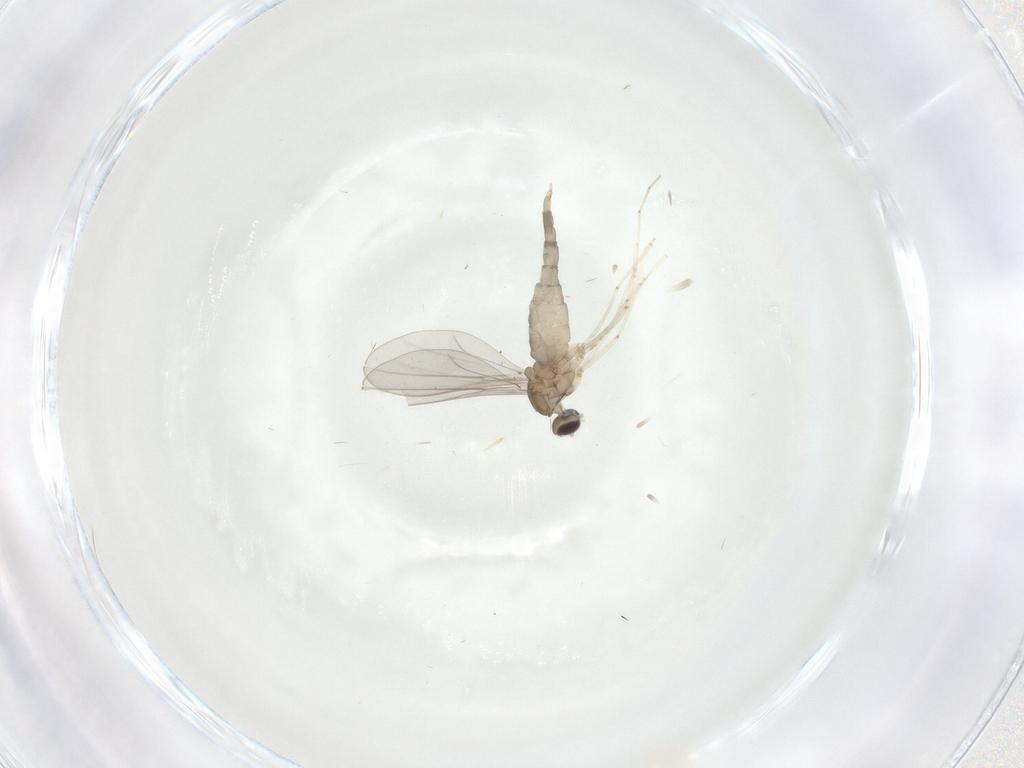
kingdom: Animalia
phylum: Arthropoda
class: Insecta
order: Diptera
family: Cecidomyiidae
